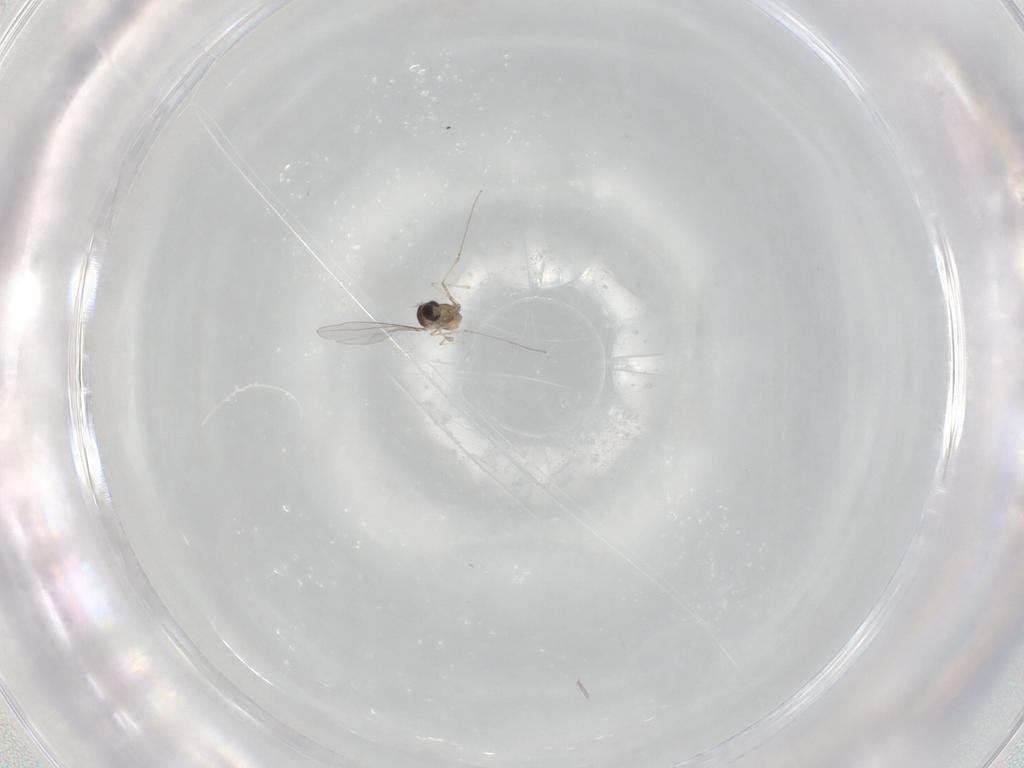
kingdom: Animalia
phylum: Arthropoda
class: Insecta
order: Diptera
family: Cecidomyiidae
